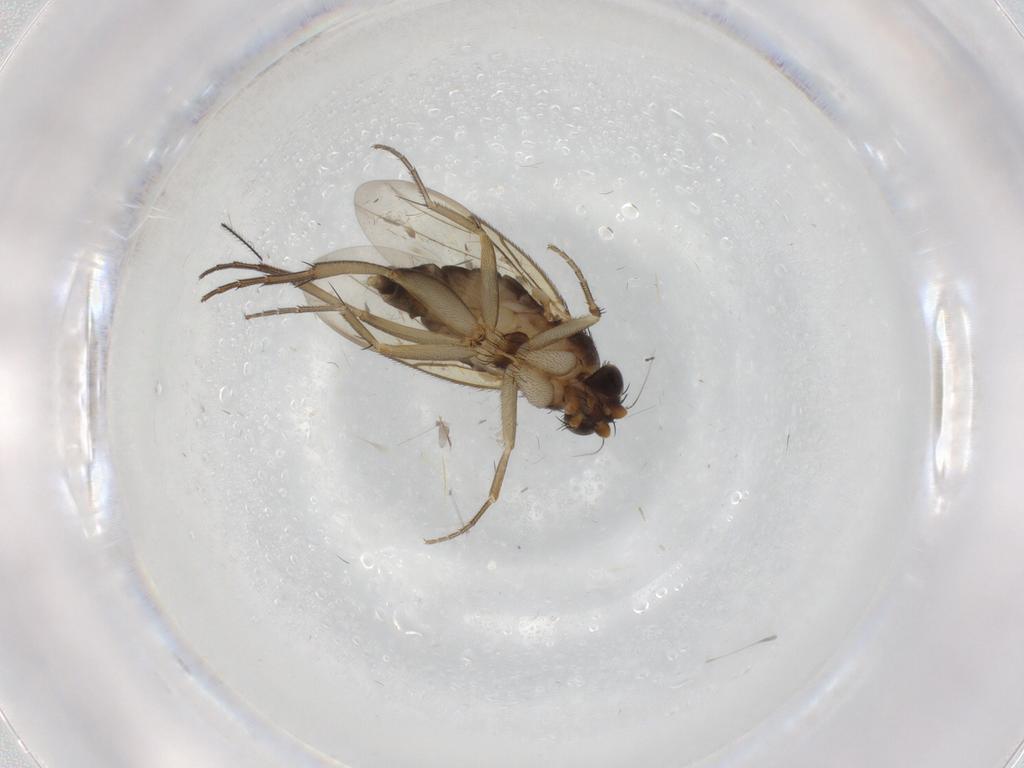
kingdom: Animalia
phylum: Arthropoda
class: Insecta
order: Diptera
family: Phoridae
